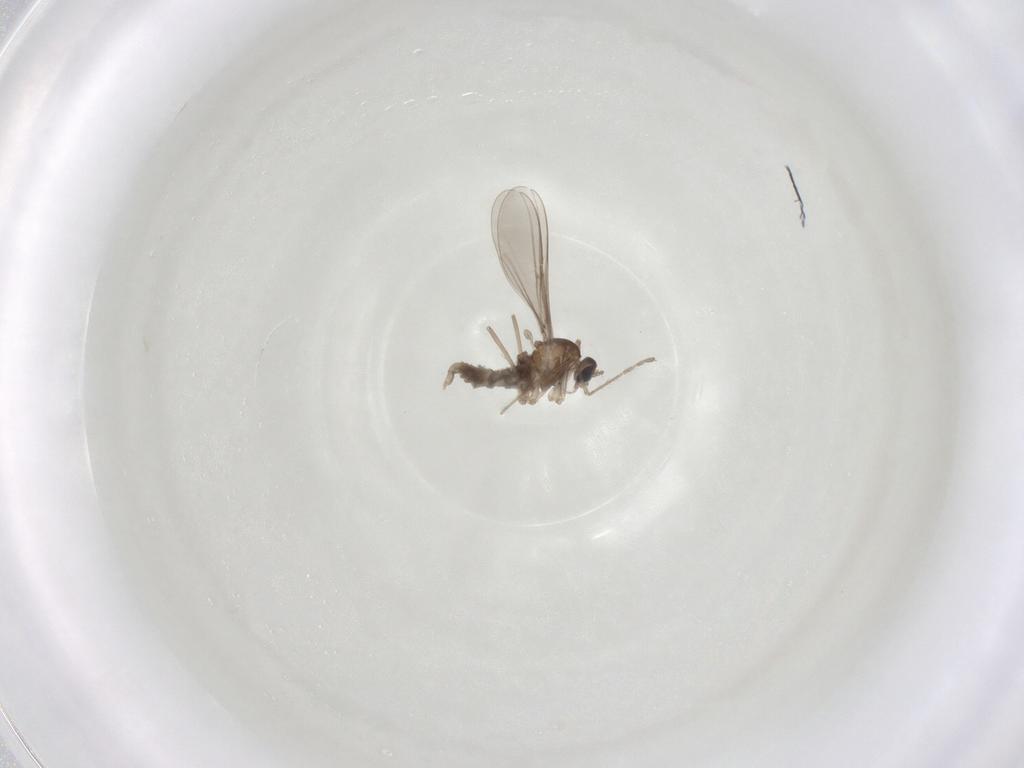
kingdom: Animalia
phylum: Arthropoda
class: Insecta
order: Diptera
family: Cecidomyiidae
